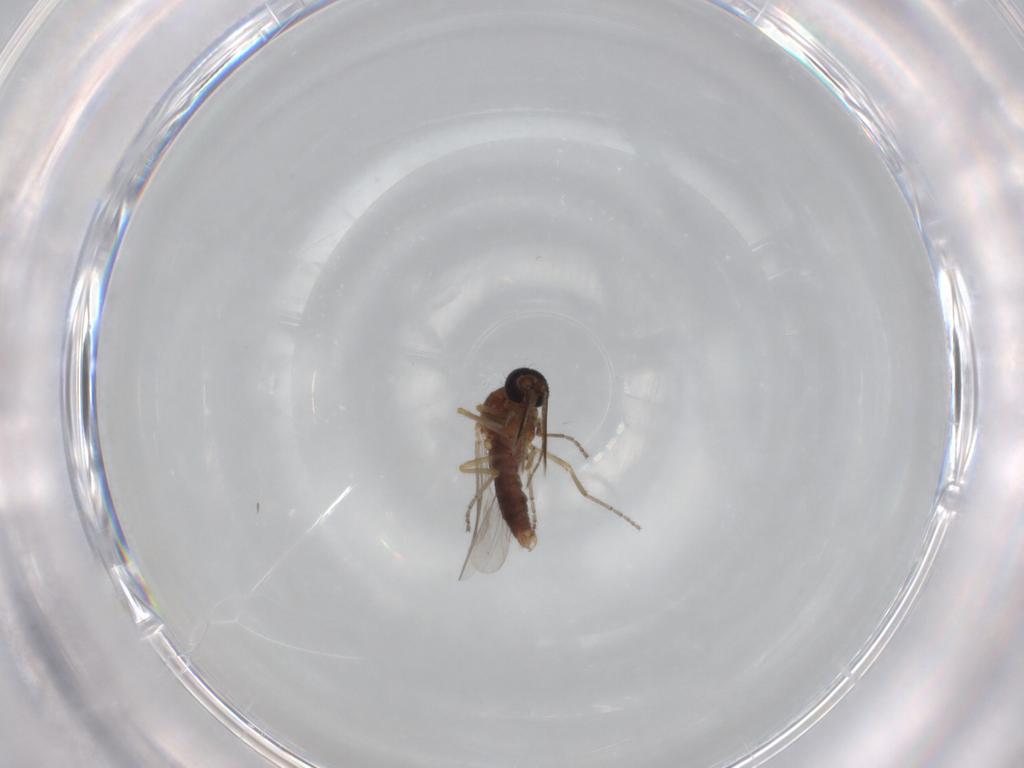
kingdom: Animalia
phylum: Arthropoda
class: Insecta
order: Diptera
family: Ceratopogonidae
